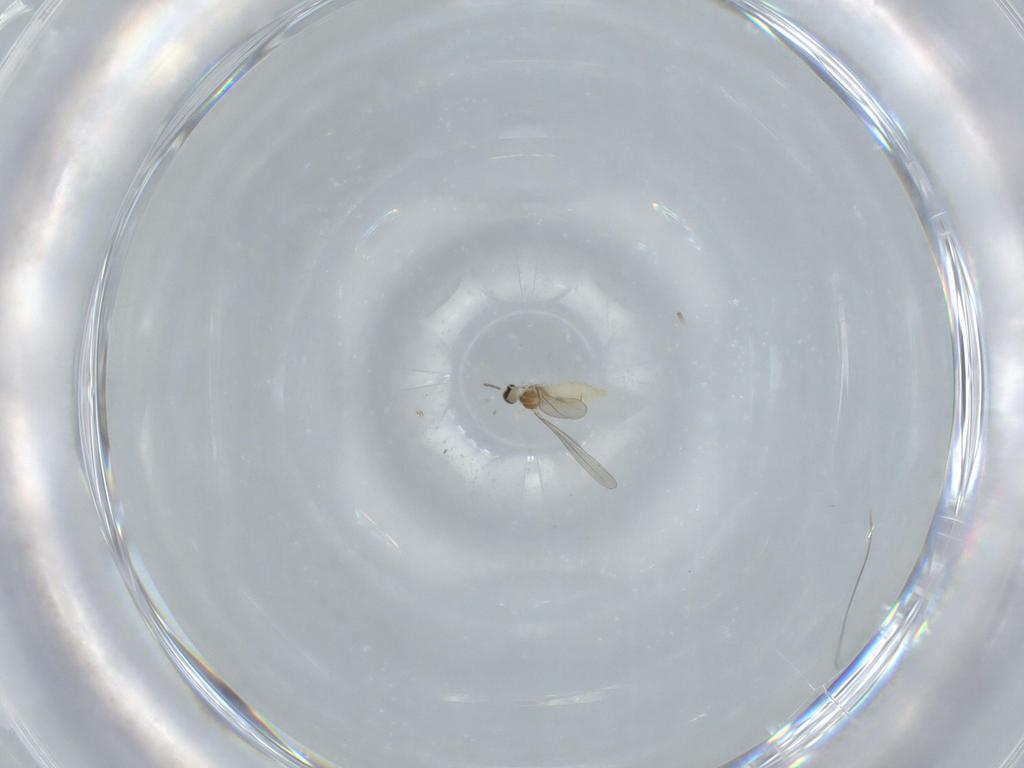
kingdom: Animalia
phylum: Arthropoda
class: Insecta
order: Diptera
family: Cecidomyiidae
